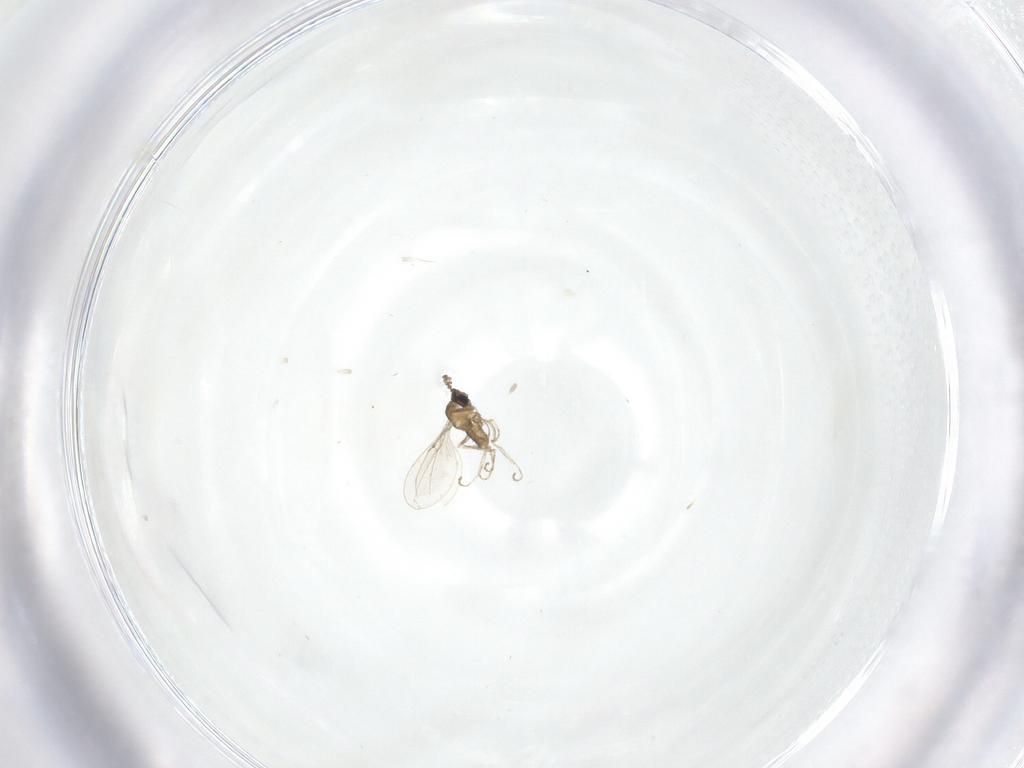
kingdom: Animalia
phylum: Arthropoda
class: Insecta
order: Diptera
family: Cecidomyiidae
